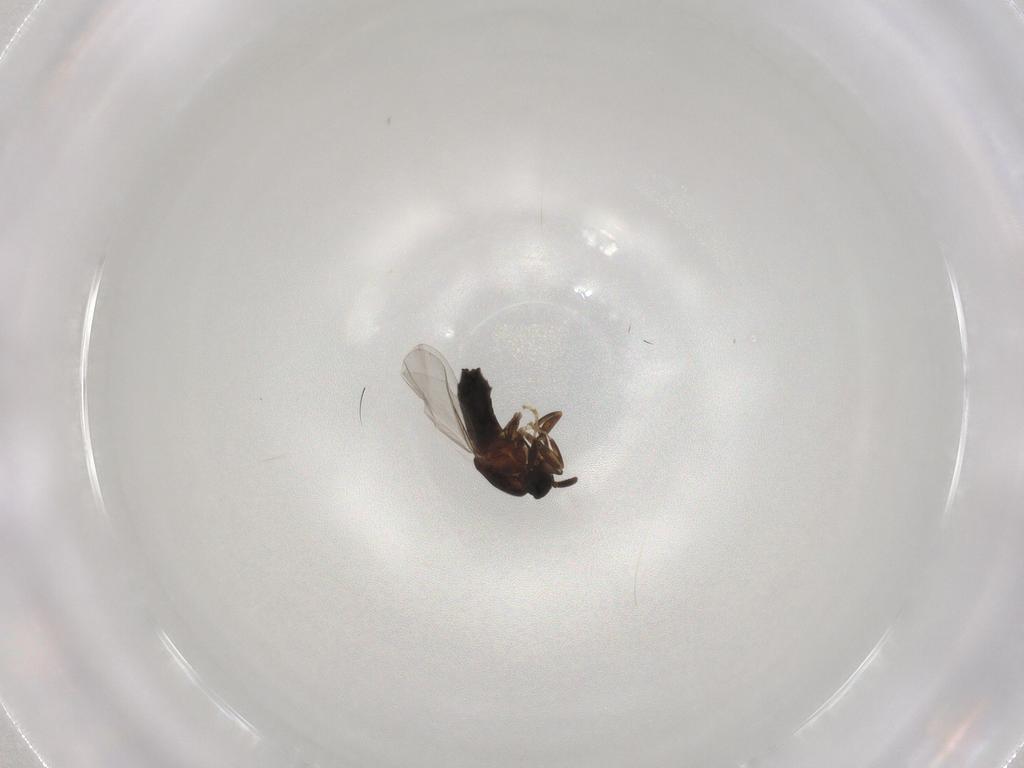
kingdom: Animalia
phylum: Arthropoda
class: Insecta
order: Diptera
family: Scatopsidae
